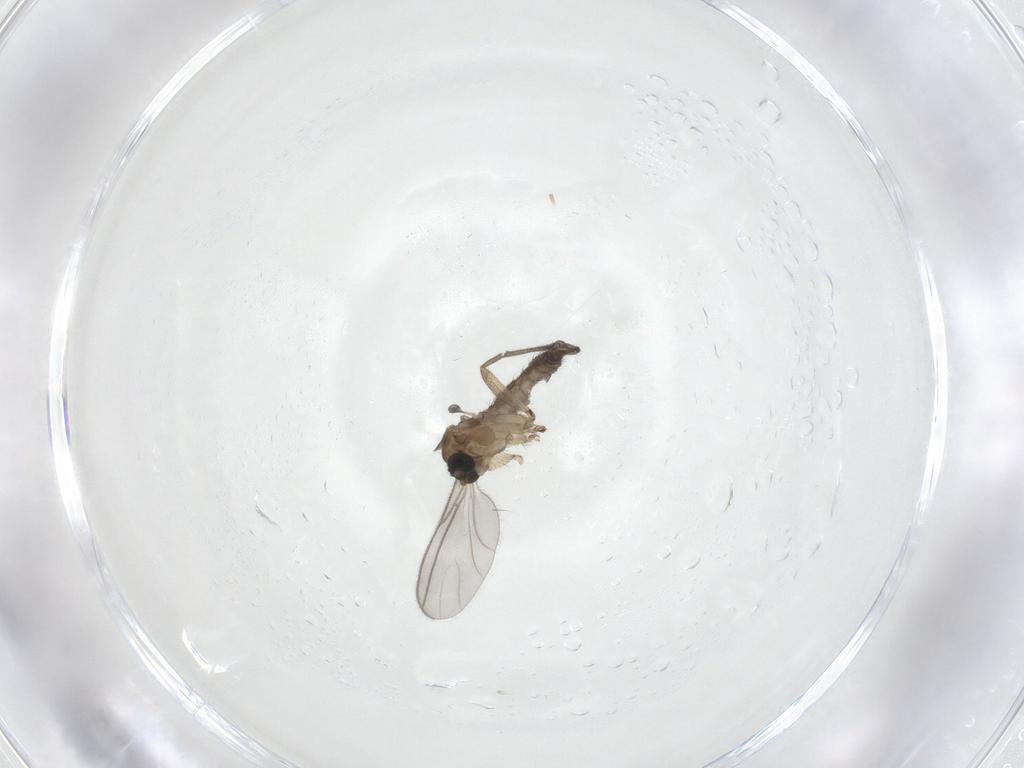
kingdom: Animalia
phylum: Arthropoda
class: Insecta
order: Diptera
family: Sciaridae
